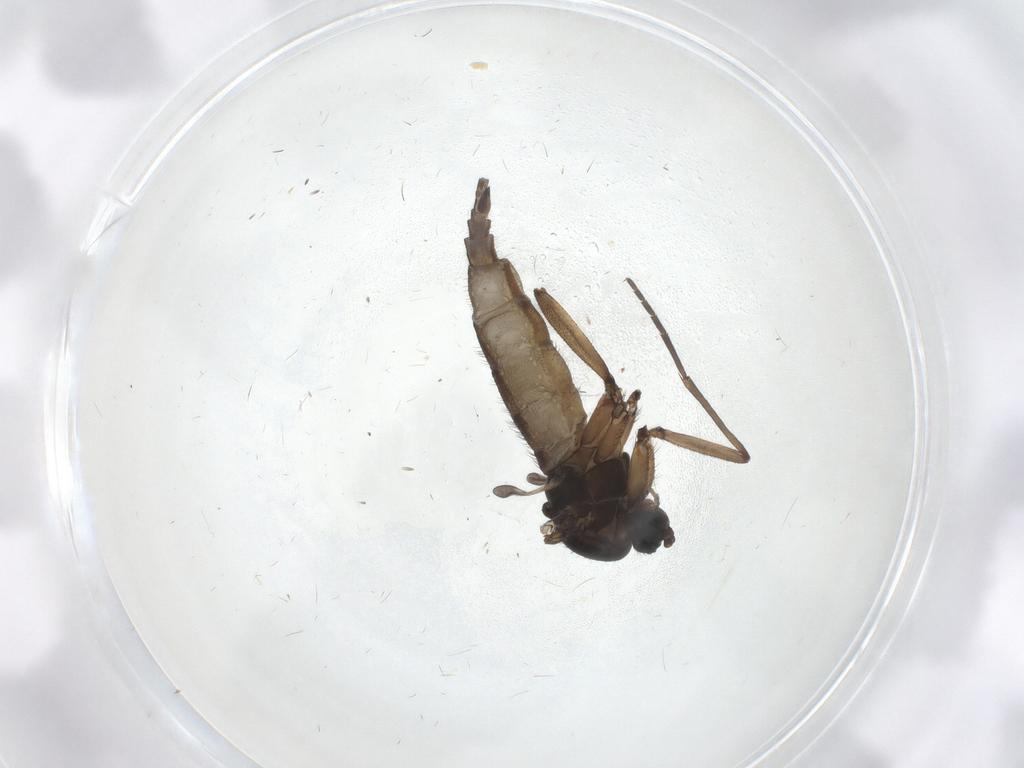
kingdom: Animalia
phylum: Arthropoda
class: Insecta
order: Diptera
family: Sciaridae
